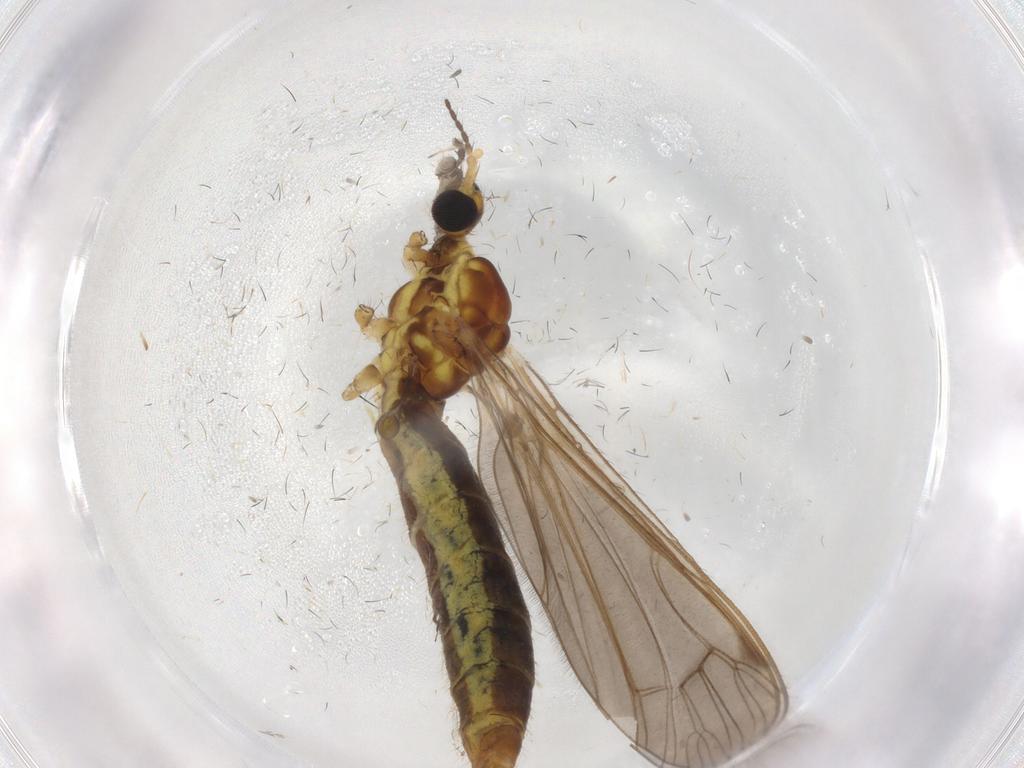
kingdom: Animalia
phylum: Arthropoda
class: Insecta
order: Diptera
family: Limoniidae
